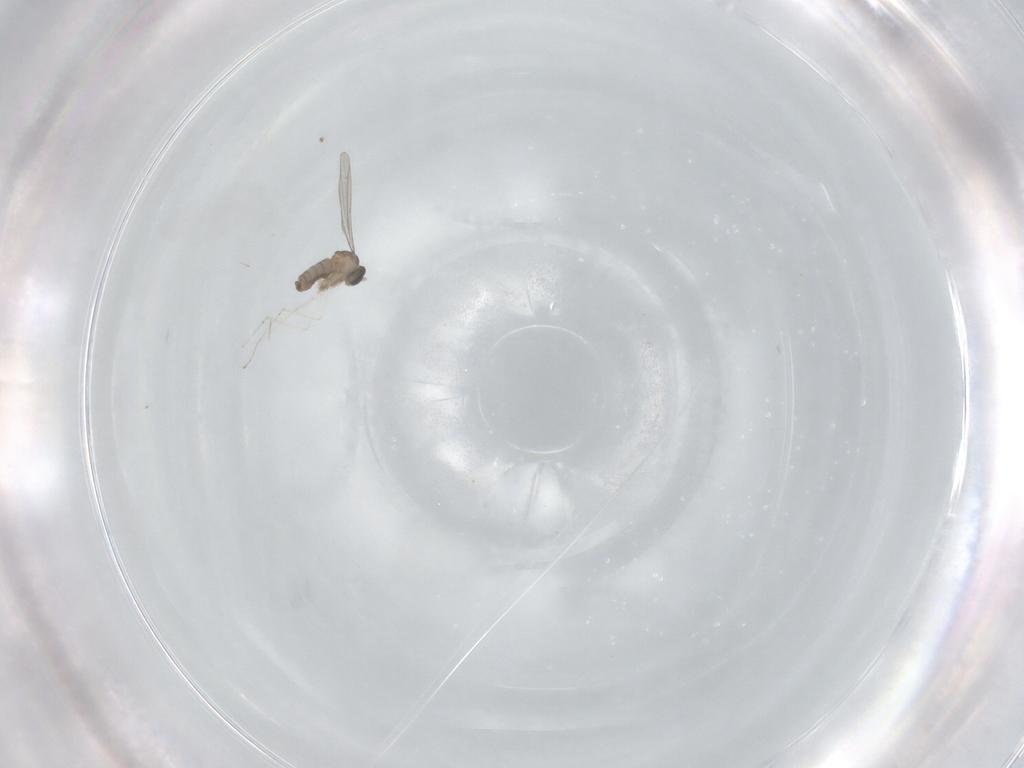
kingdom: Animalia
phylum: Arthropoda
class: Insecta
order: Diptera
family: Cecidomyiidae
